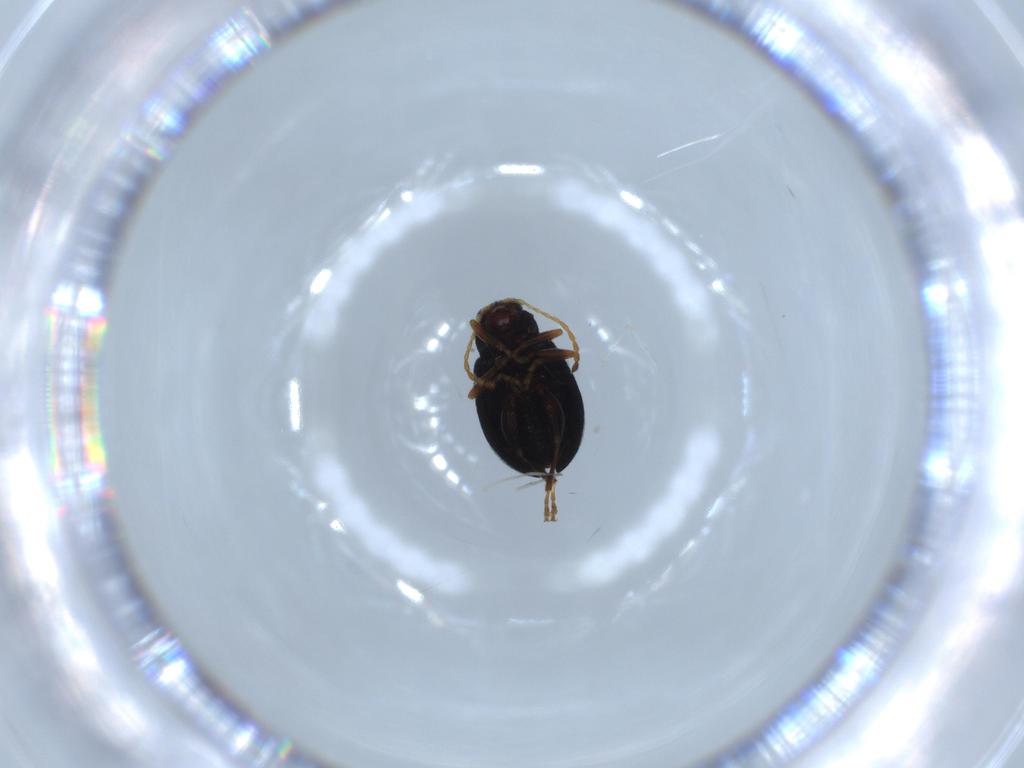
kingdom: Animalia
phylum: Arthropoda
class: Insecta
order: Coleoptera
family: Chrysomelidae
